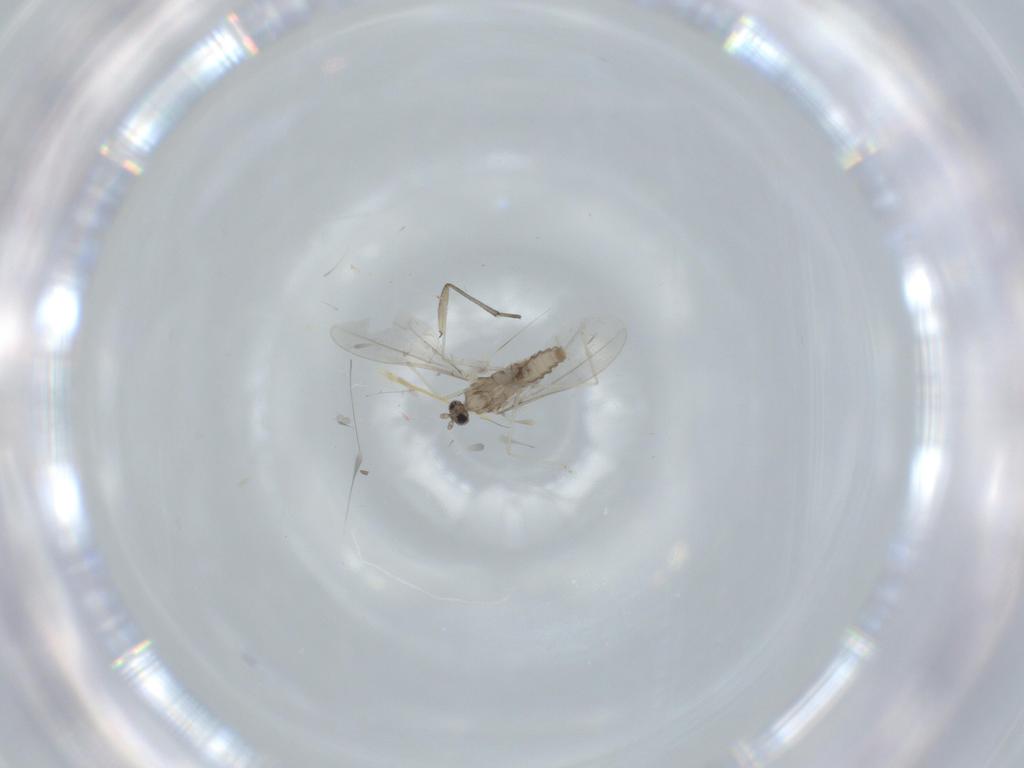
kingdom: Animalia
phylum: Arthropoda
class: Insecta
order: Diptera
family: Cecidomyiidae
